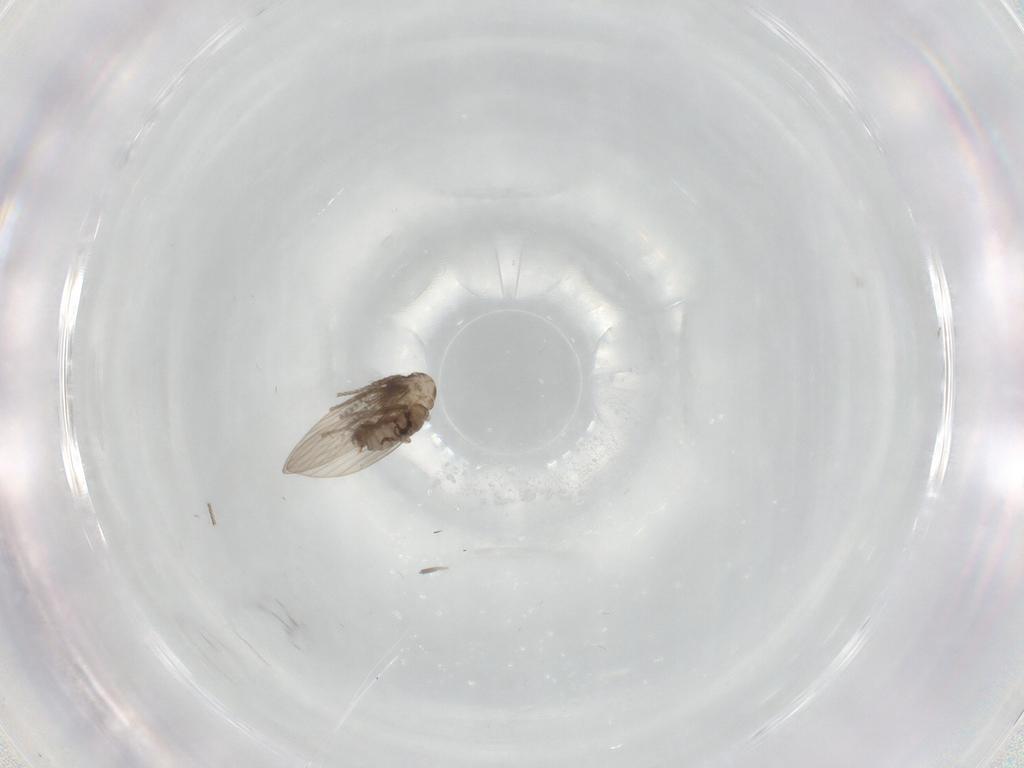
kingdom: Animalia
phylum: Arthropoda
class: Insecta
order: Diptera
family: Psychodidae
